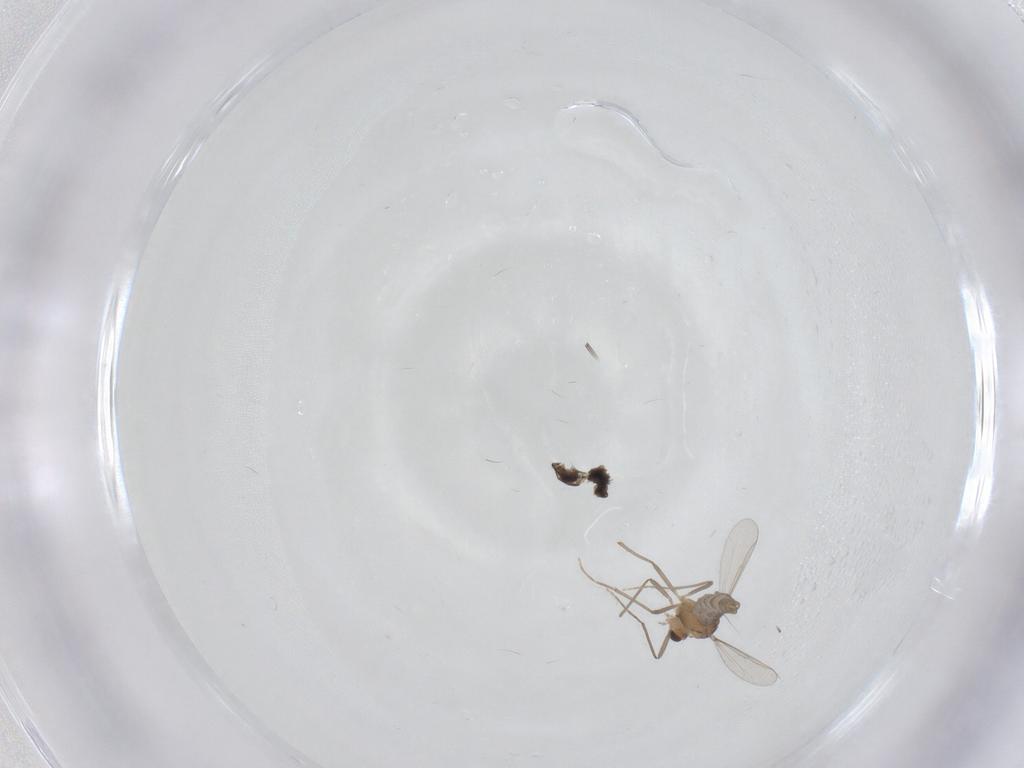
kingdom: Animalia
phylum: Arthropoda
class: Insecta
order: Diptera
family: Chironomidae
